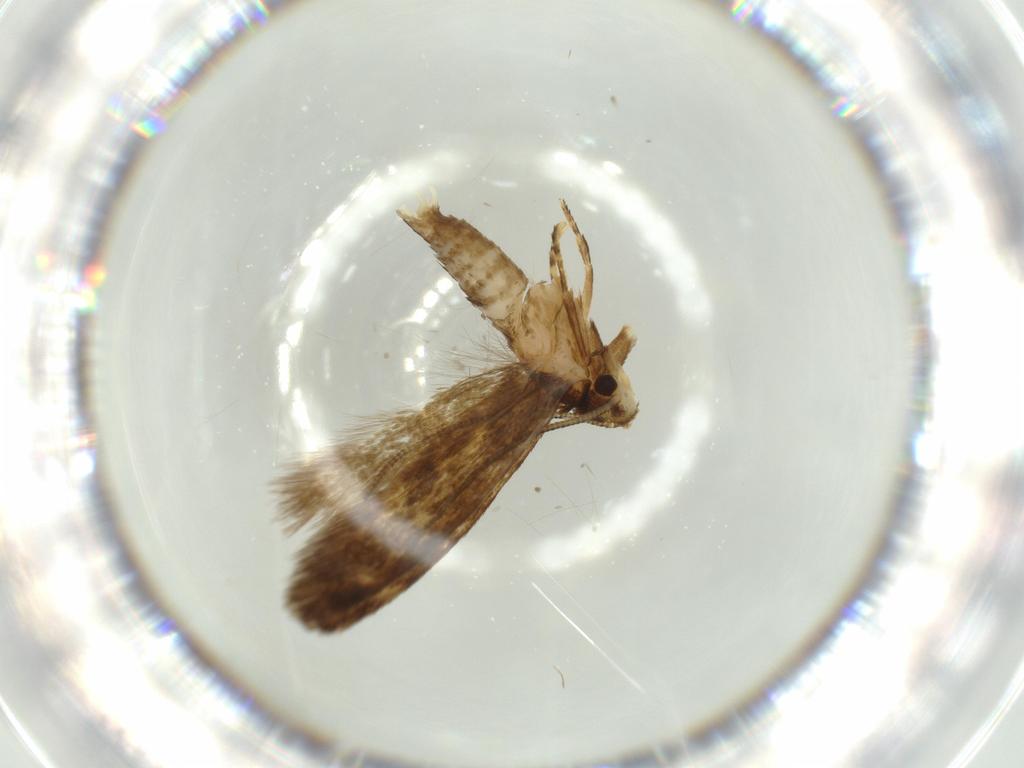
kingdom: Animalia
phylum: Arthropoda
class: Insecta
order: Lepidoptera
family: Tineidae
